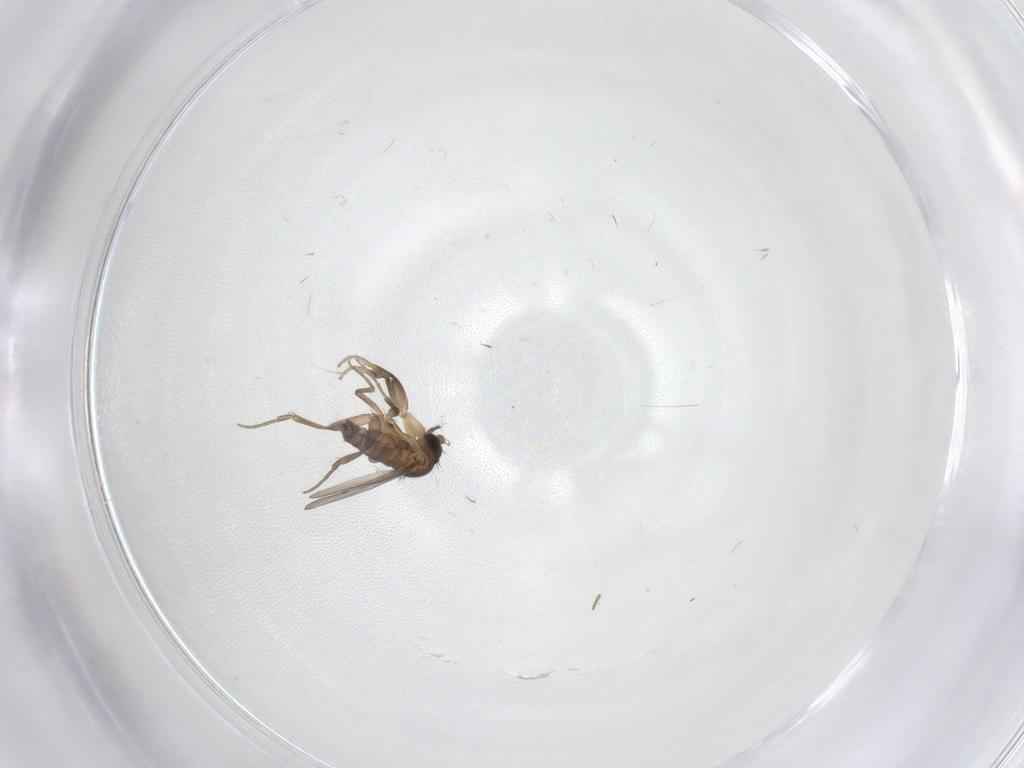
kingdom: Animalia
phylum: Arthropoda
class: Insecta
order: Diptera
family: Phoridae
